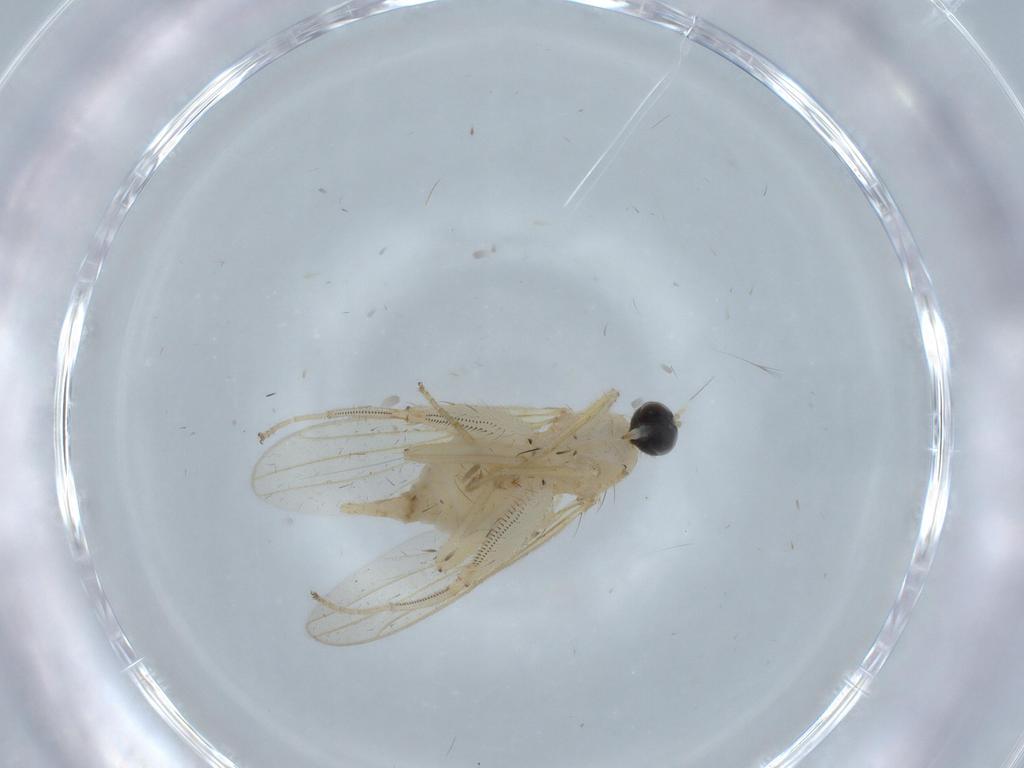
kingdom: Animalia
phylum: Arthropoda
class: Insecta
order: Diptera
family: Hybotidae
